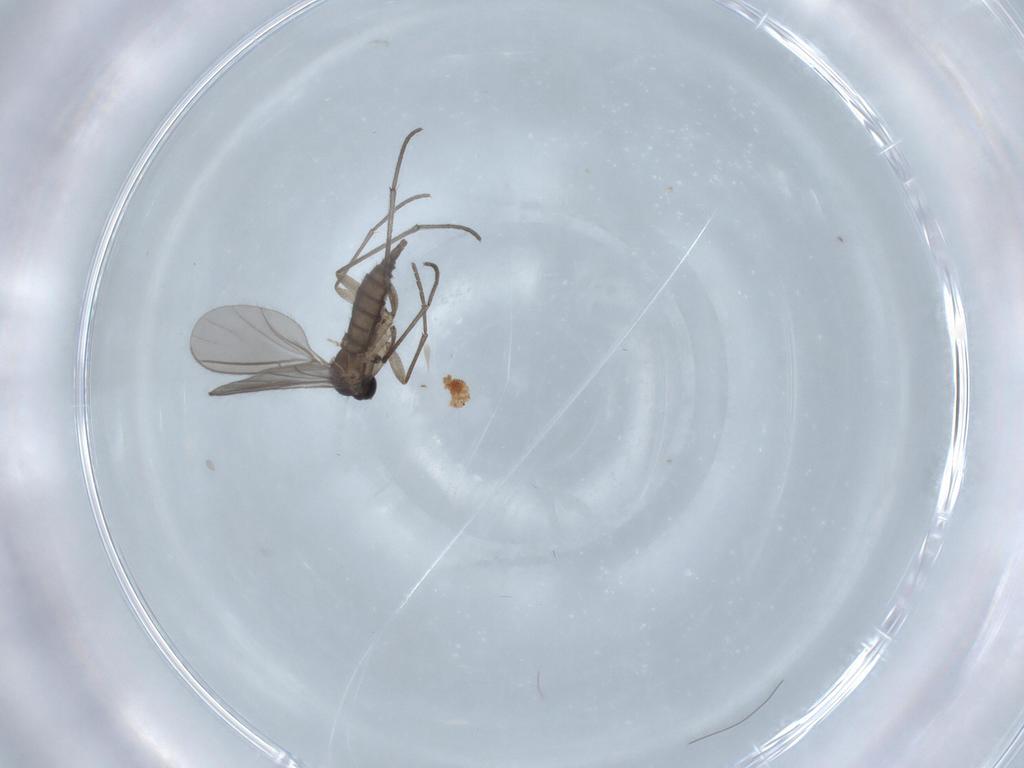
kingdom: Animalia
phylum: Arthropoda
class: Insecta
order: Diptera
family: Sciaridae
